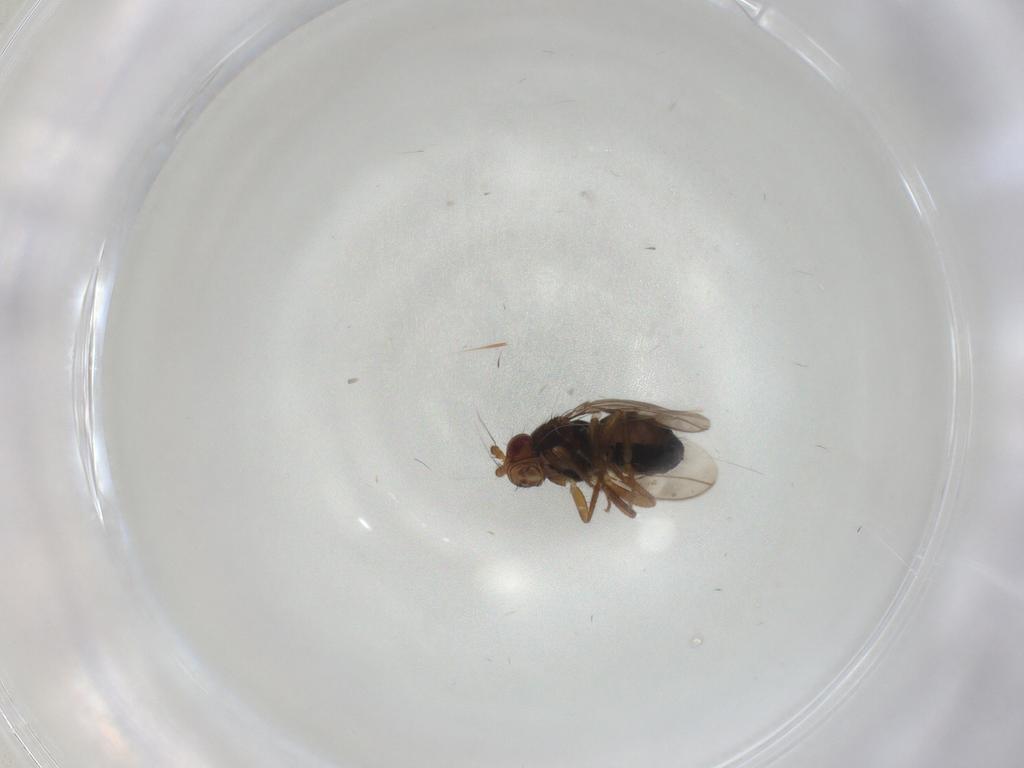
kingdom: Animalia
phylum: Arthropoda
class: Insecta
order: Diptera
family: Sphaeroceridae
